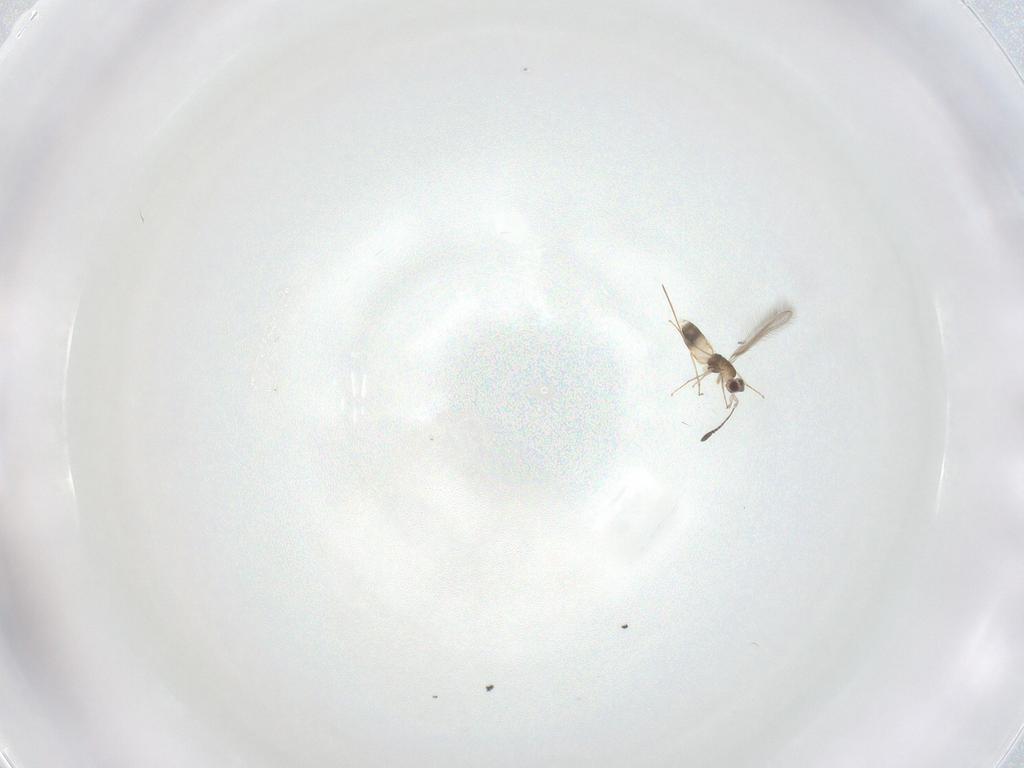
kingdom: Animalia
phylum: Arthropoda
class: Insecta
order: Hymenoptera
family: Mymaridae
